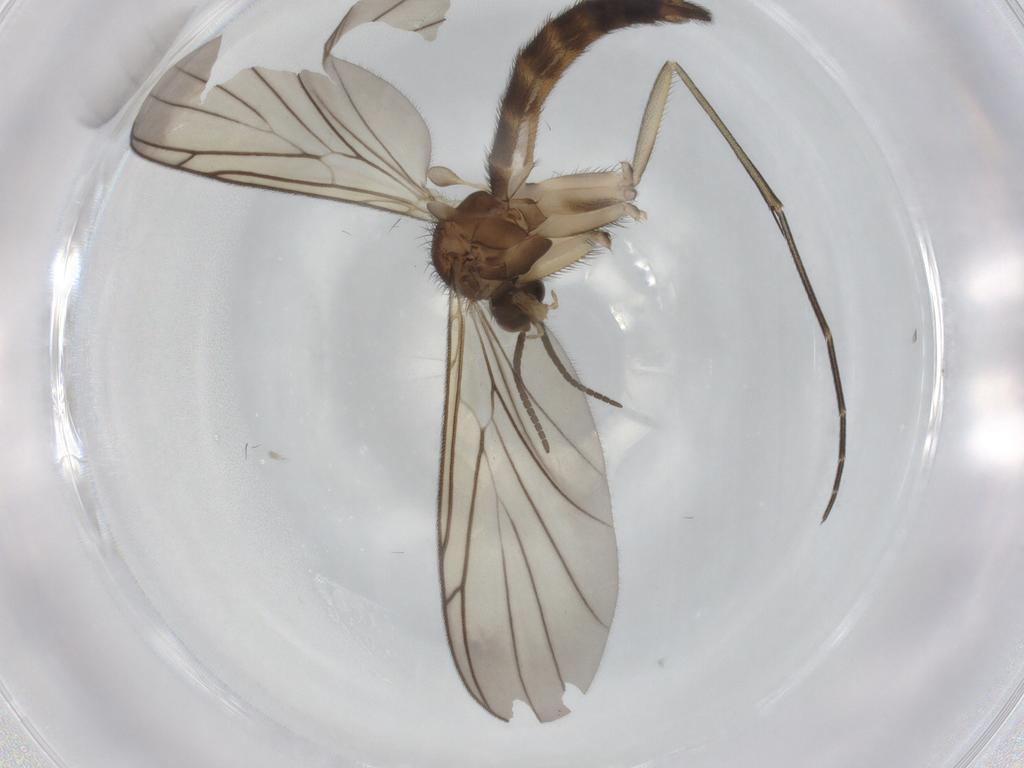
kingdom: Animalia
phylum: Arthropoda
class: Insecta
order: Diptera
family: Keroplatidae
